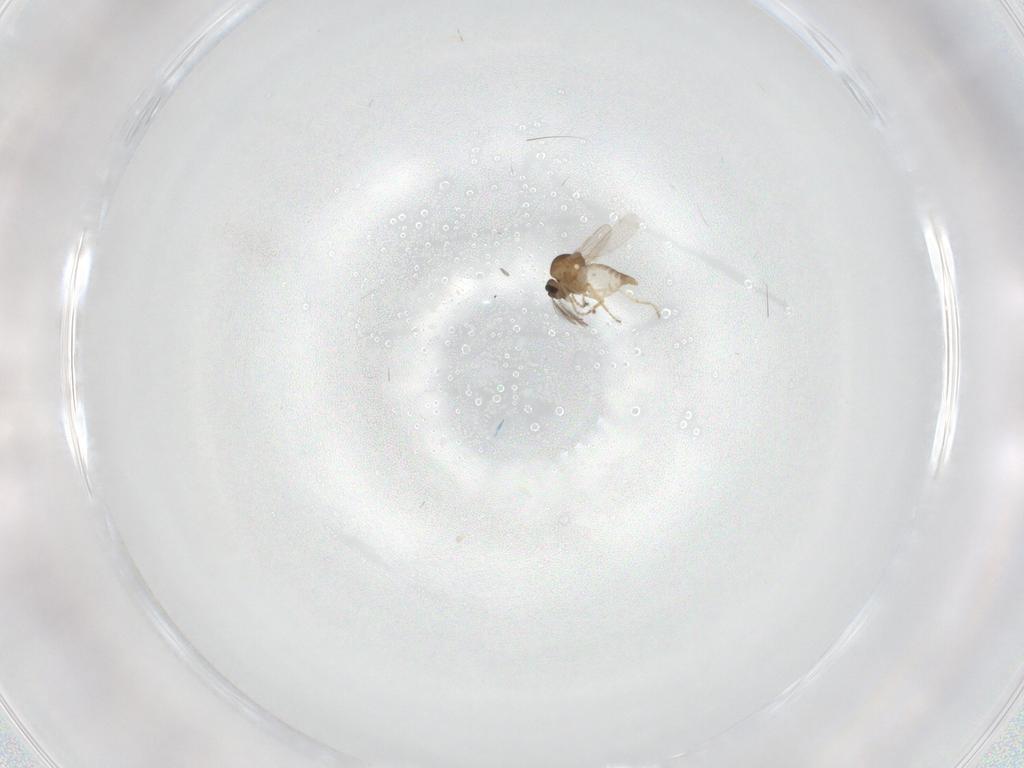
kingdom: Animalia
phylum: Arthropoda
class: Insecta
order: Diptera
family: Ceratopogonidae
